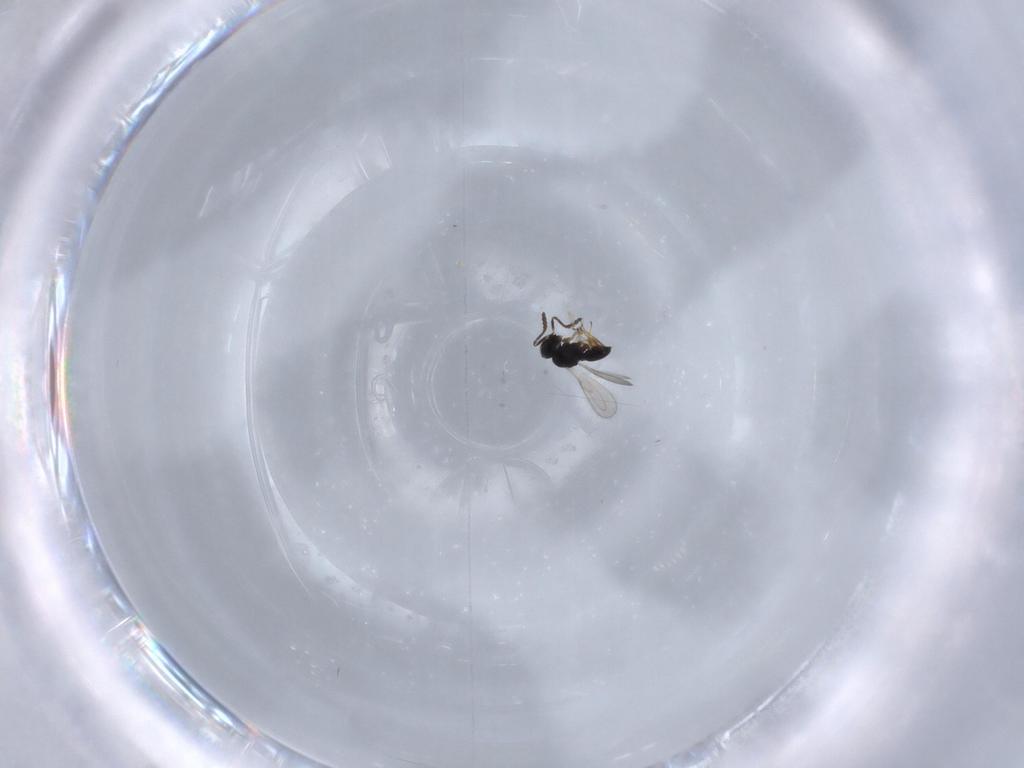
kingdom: Animalia
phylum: Arthropoda
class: Insecta
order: Hymenoptera
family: Scelionidae
